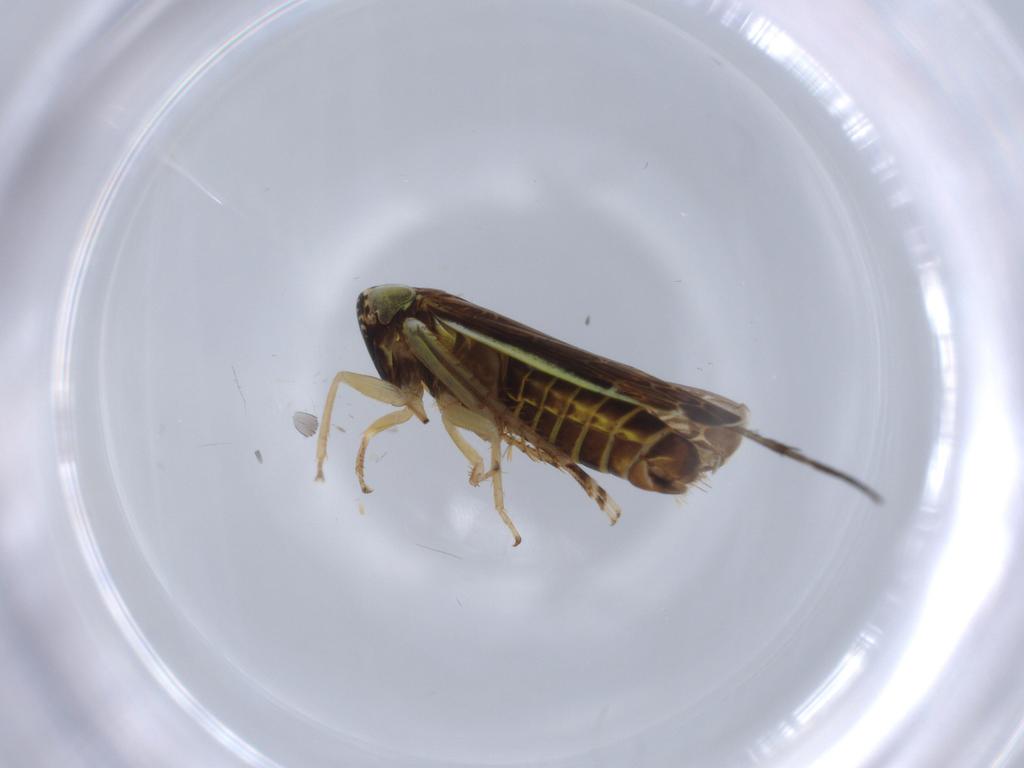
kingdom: Animalia
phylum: Arthropoda
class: Insecta
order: Hemiptera
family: Cicadellidae
